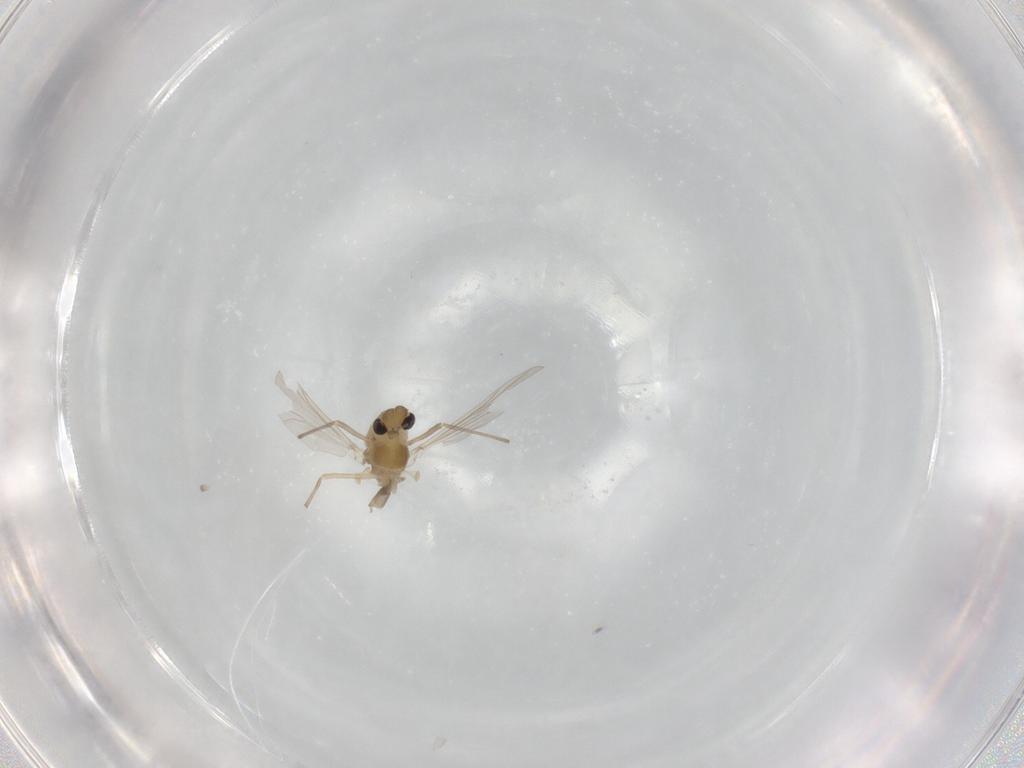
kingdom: Animalia
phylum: Arthropoda
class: Insecta
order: Diptera
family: Chironomidae
